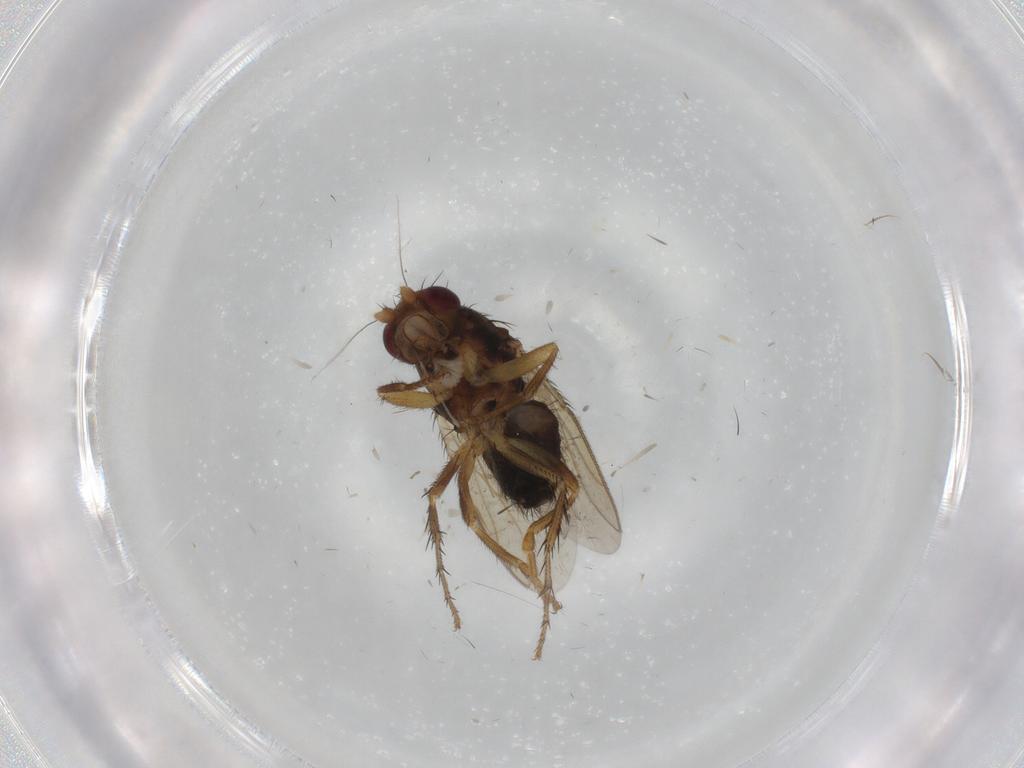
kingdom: Animalia
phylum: Arthropoda
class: Insecta
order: Diptera
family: Sphaeroceridae
